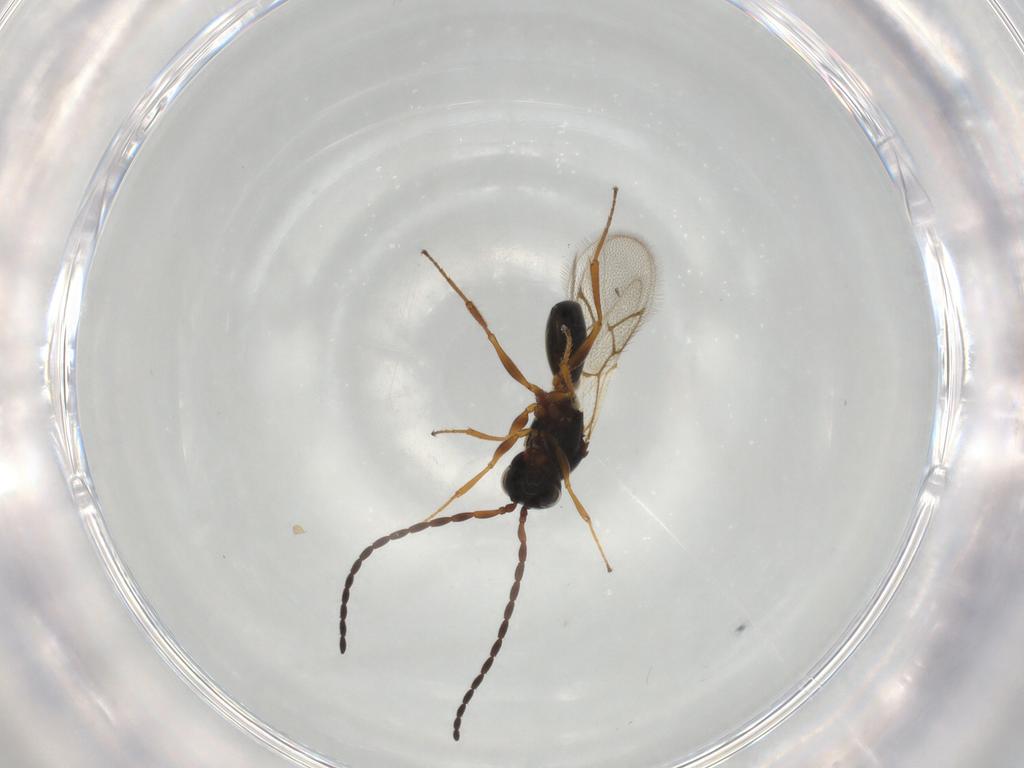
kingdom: Animalia
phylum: Arthropoda
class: Insecta
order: Hymenoptera
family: Figitidae
